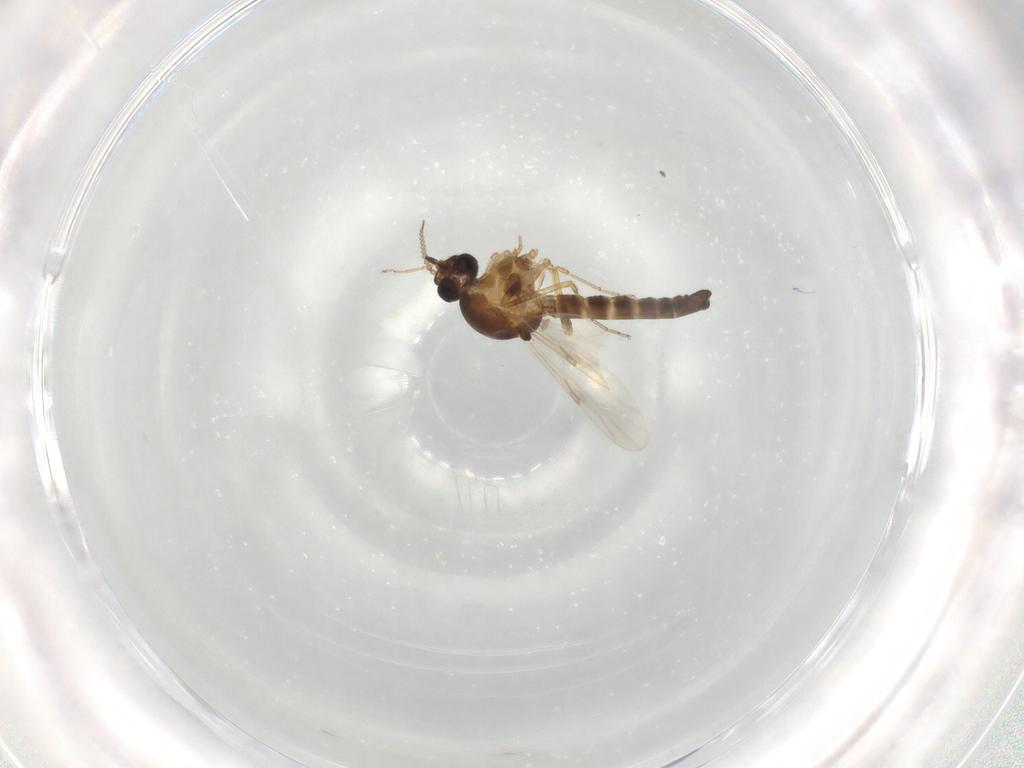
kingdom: Animalia
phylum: Arthropoda
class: Insecta
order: Diptera
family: Ceratopogonidae
